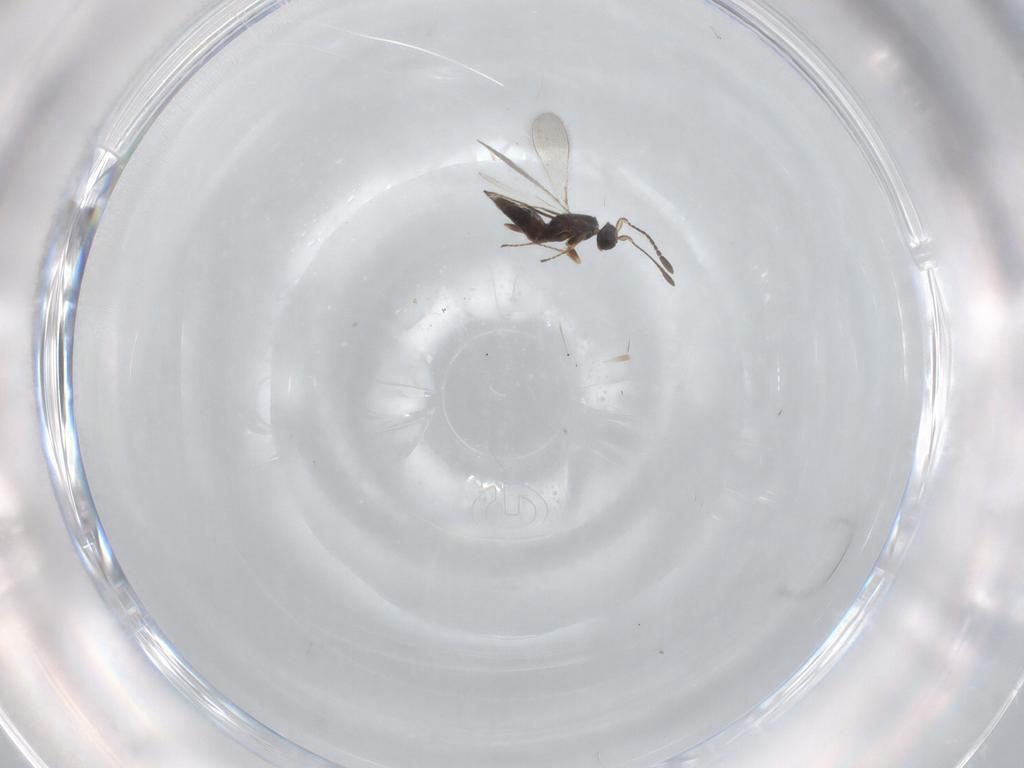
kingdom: Animalia
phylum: Arthropoda
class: Insecta
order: Hymenoptera
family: Mymaridae
